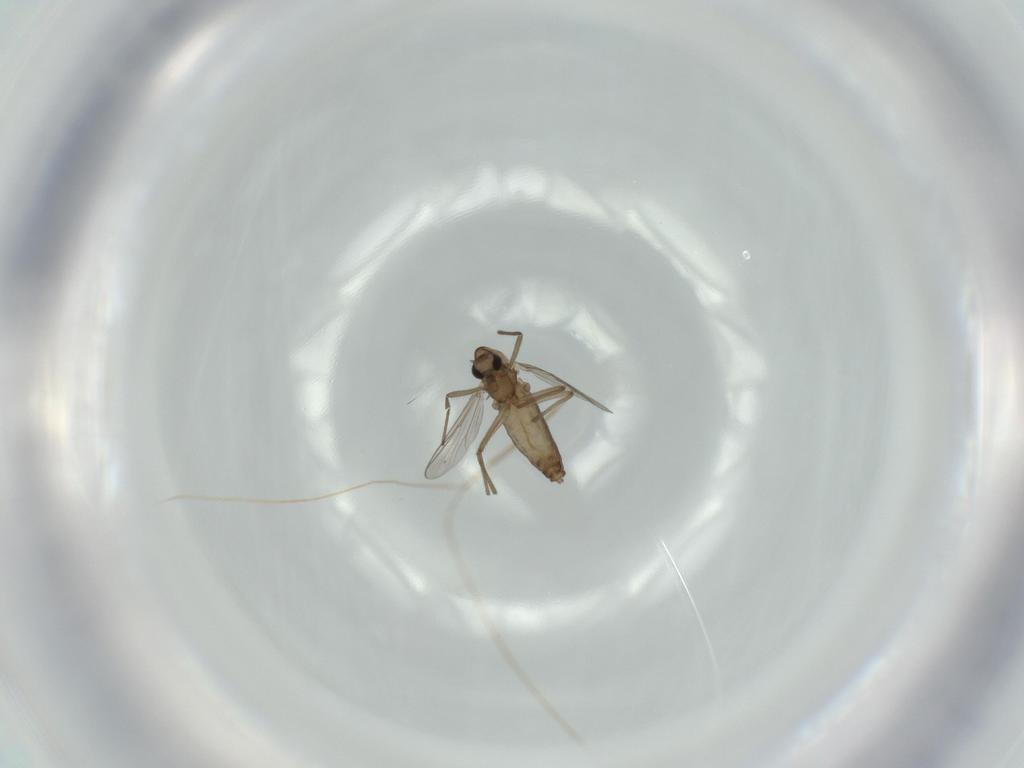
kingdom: Animalia
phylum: Arthropoda
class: Insecta
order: Diptera
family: Chironomidae
